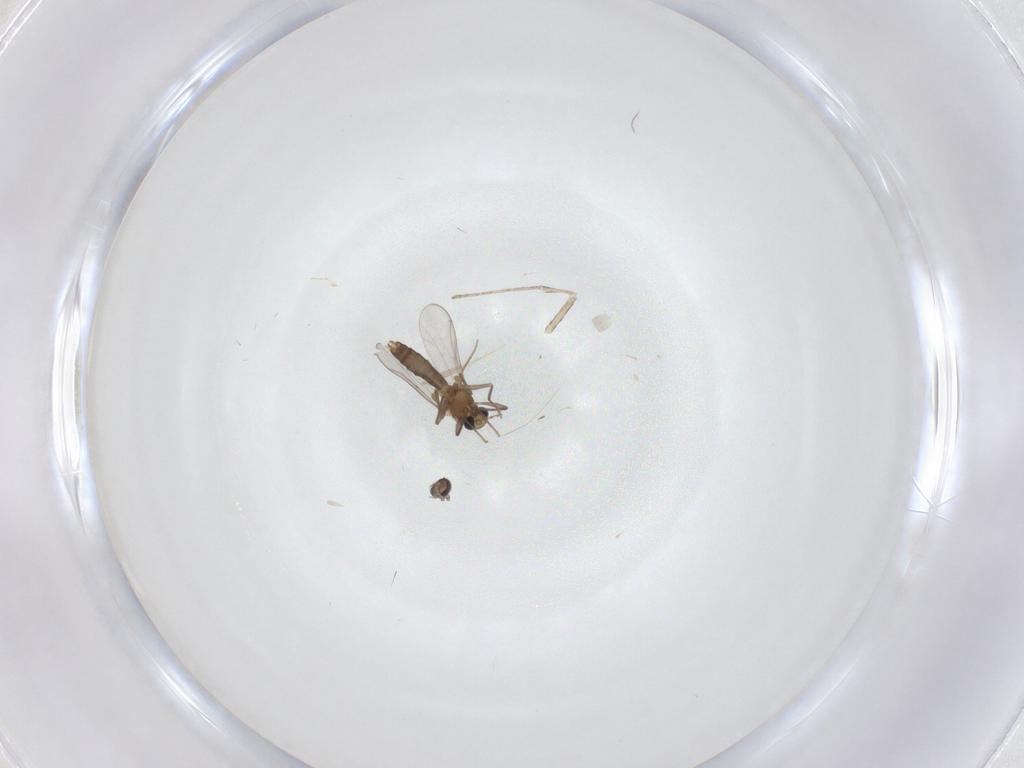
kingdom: Animalia
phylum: Arthropoda
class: Insecta
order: Diptera
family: Chironomidae
